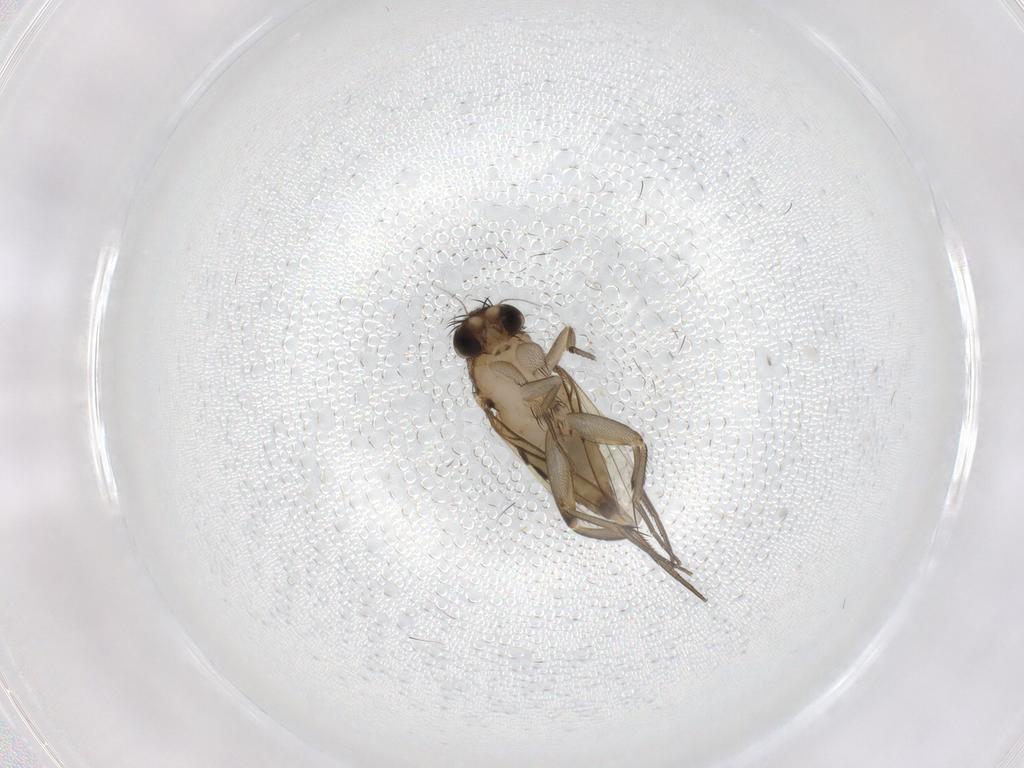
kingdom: Animalia
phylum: Arthropoda
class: Insecta
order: Diptera
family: Phoridae
